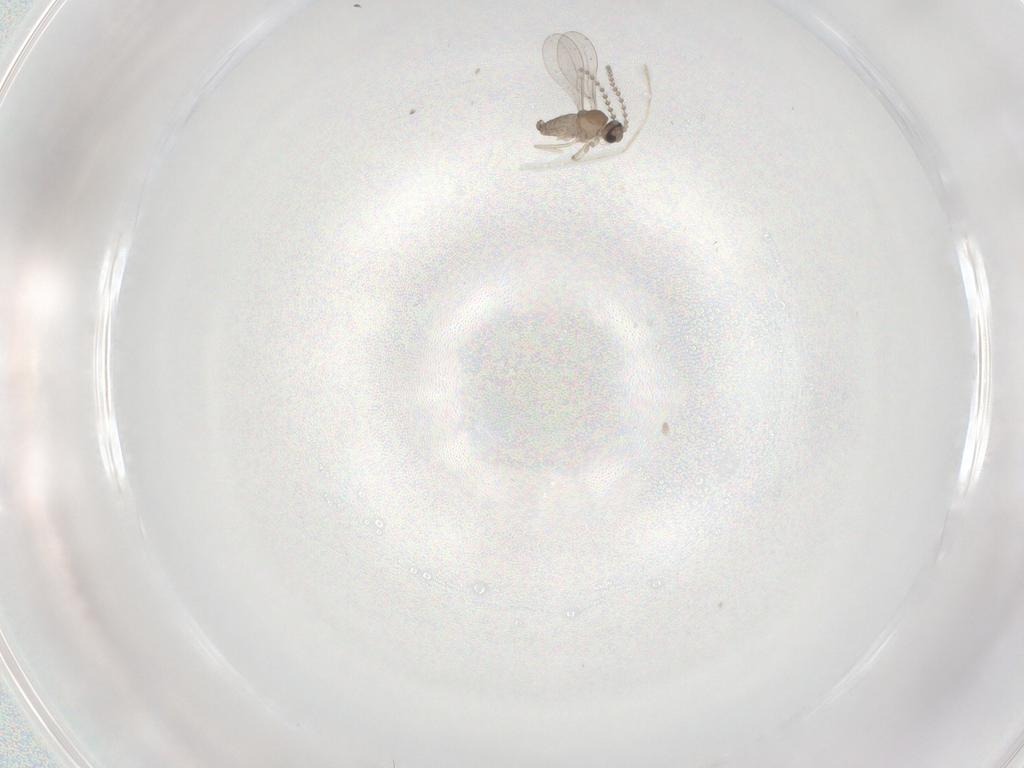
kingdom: Animalia
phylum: Arthropoda
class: Insecta
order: Diptera
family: Cecidomyiidae
